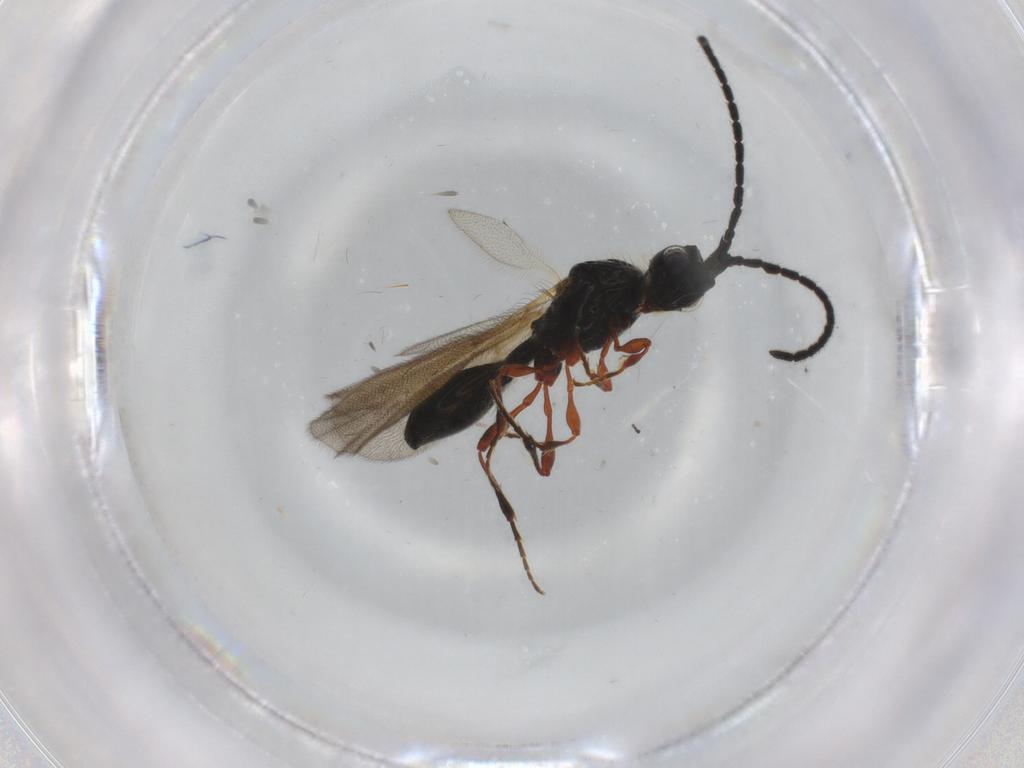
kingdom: Animalia
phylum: Arthropoda
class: Insecta
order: Hymenoptera
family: Diapriidae
